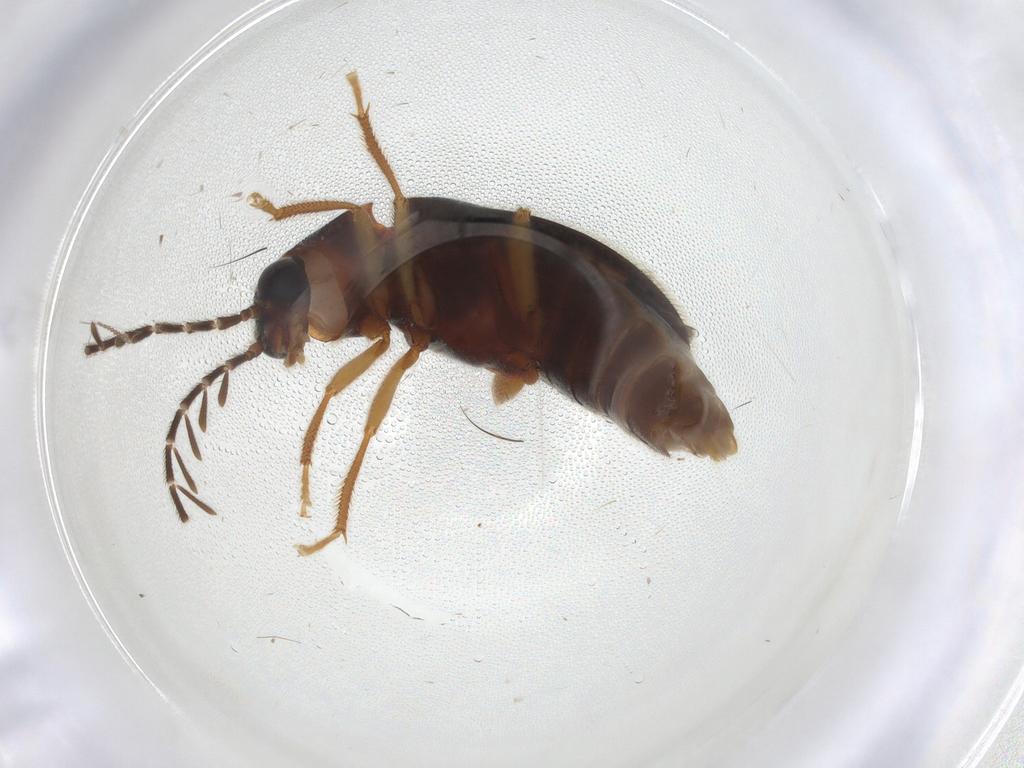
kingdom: Animalia
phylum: Arthropoda
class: Insecta
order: Coleoptera
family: Ptilodactylidae
